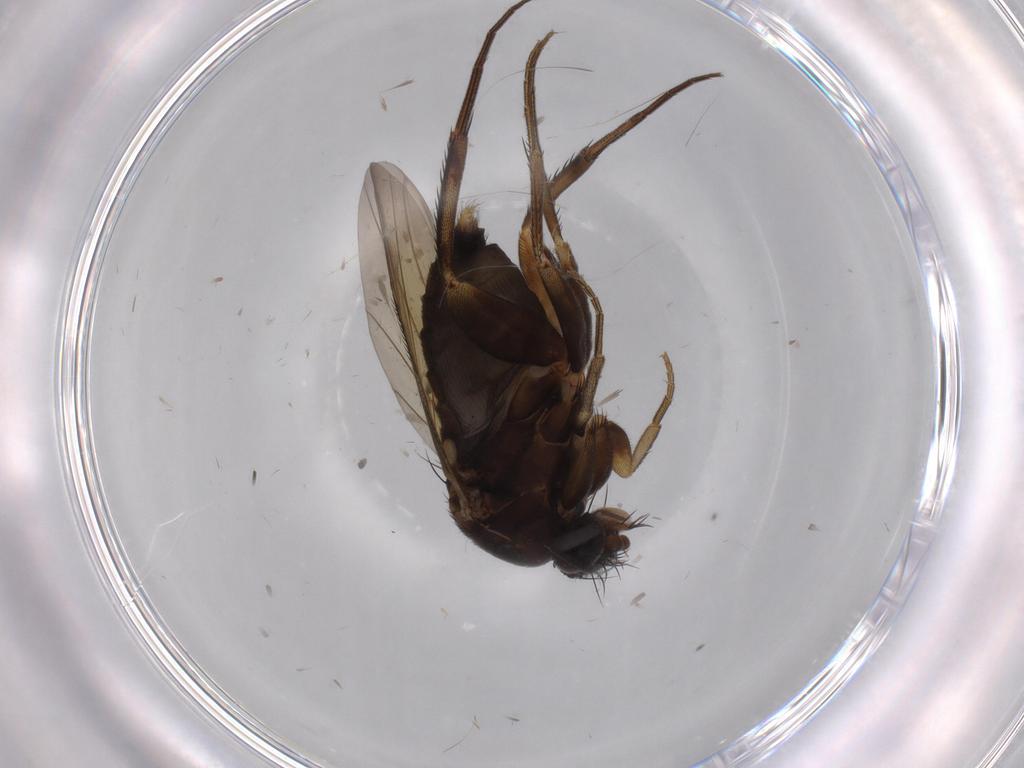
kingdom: Animalia
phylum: Arthropoda
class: Insecta
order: Diptera
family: Phoridae
